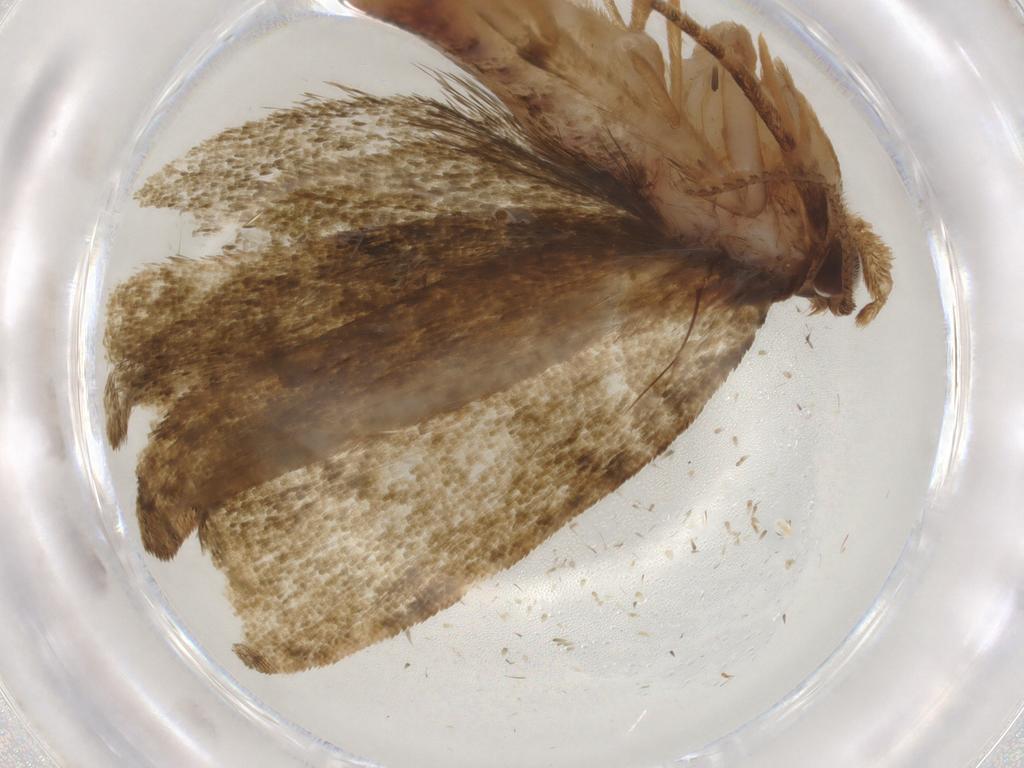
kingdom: Animalia
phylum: Arthropoda
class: Insecta
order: Lepidoptera
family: Geometridae
